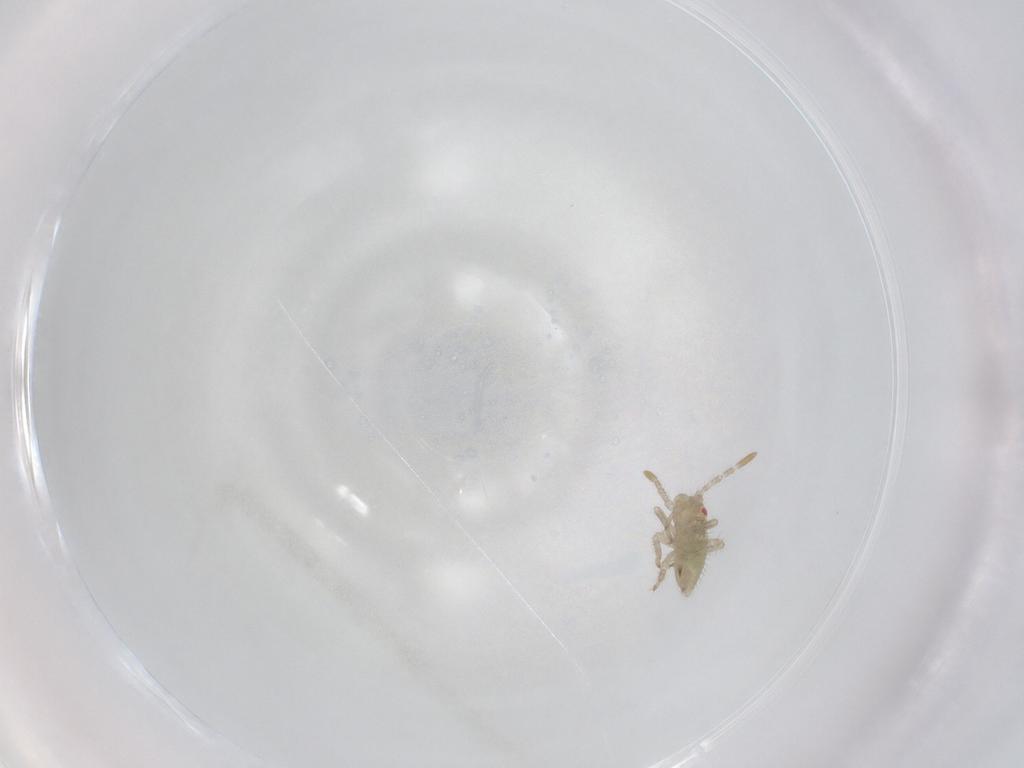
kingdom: Animalia
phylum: Arthropoda
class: Insecta
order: Hemiptera
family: Miridae
